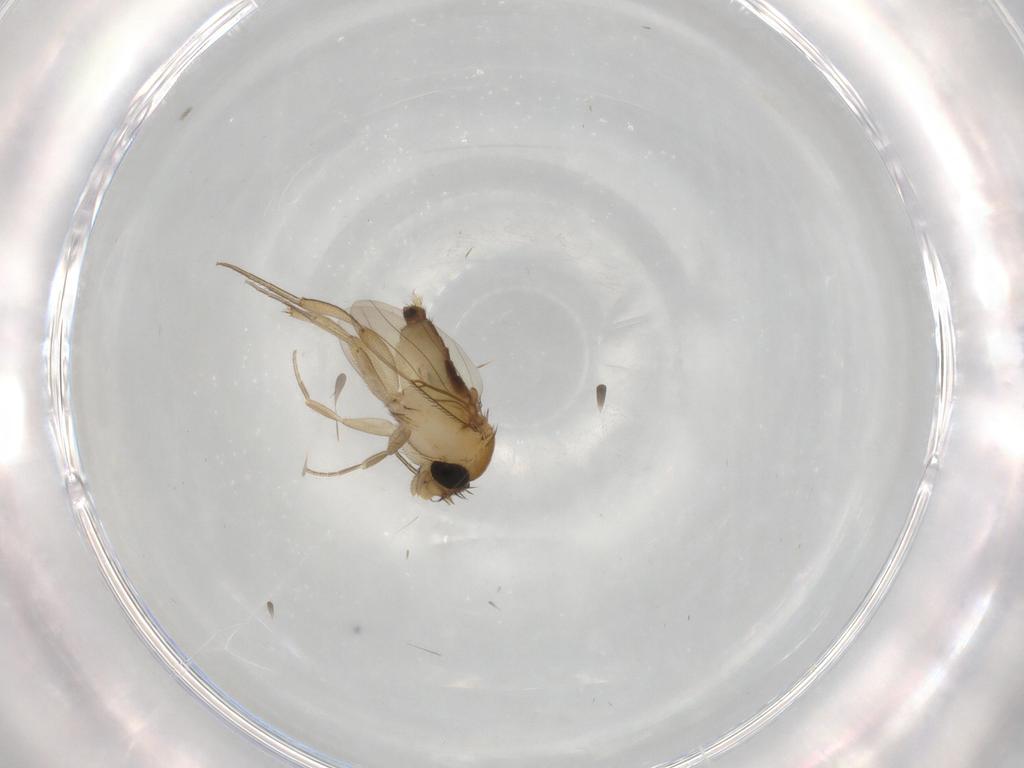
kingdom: Animalia
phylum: Arthropoda
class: Insecta
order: Diptera
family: Phoridae
